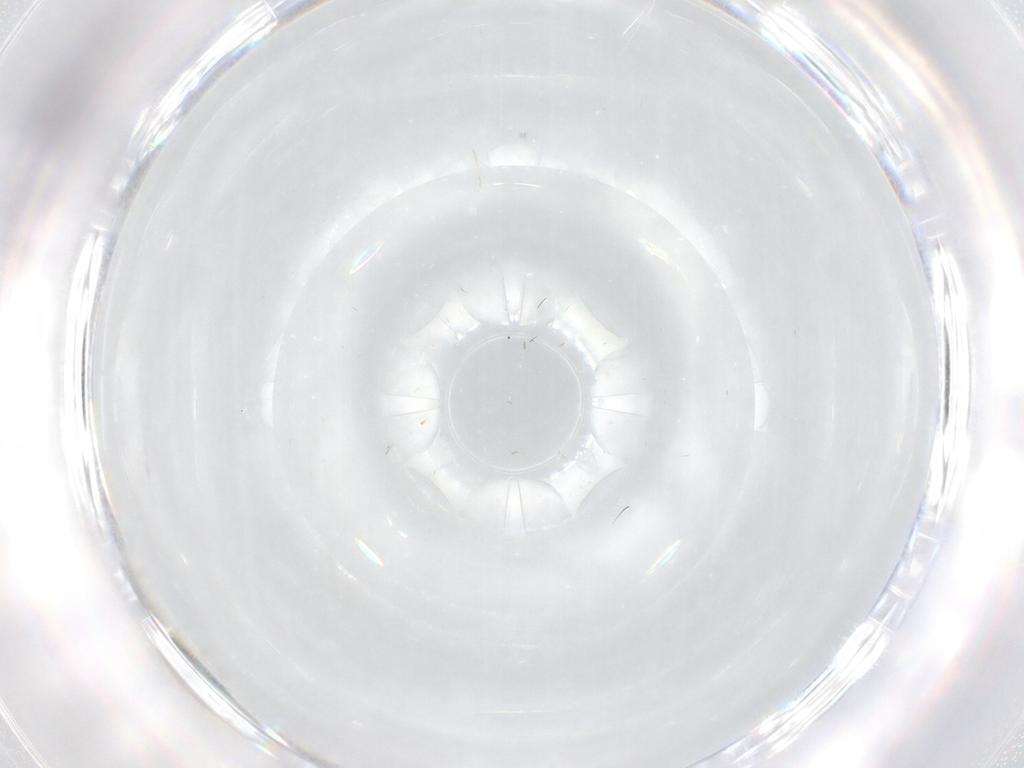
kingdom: Animalia
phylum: Arthropoda
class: Insecta
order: Diptera
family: Cecidomyiidae
